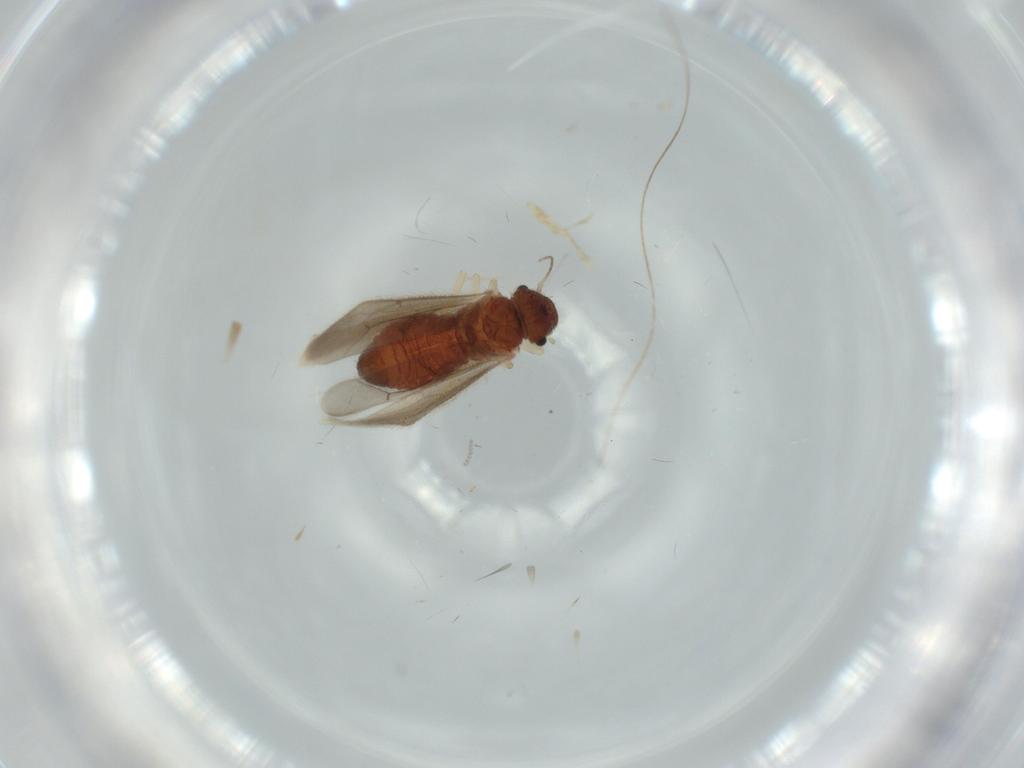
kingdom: Animalia
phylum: Arthropoda
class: Insecta
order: Psocodea
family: Archipsocidae
